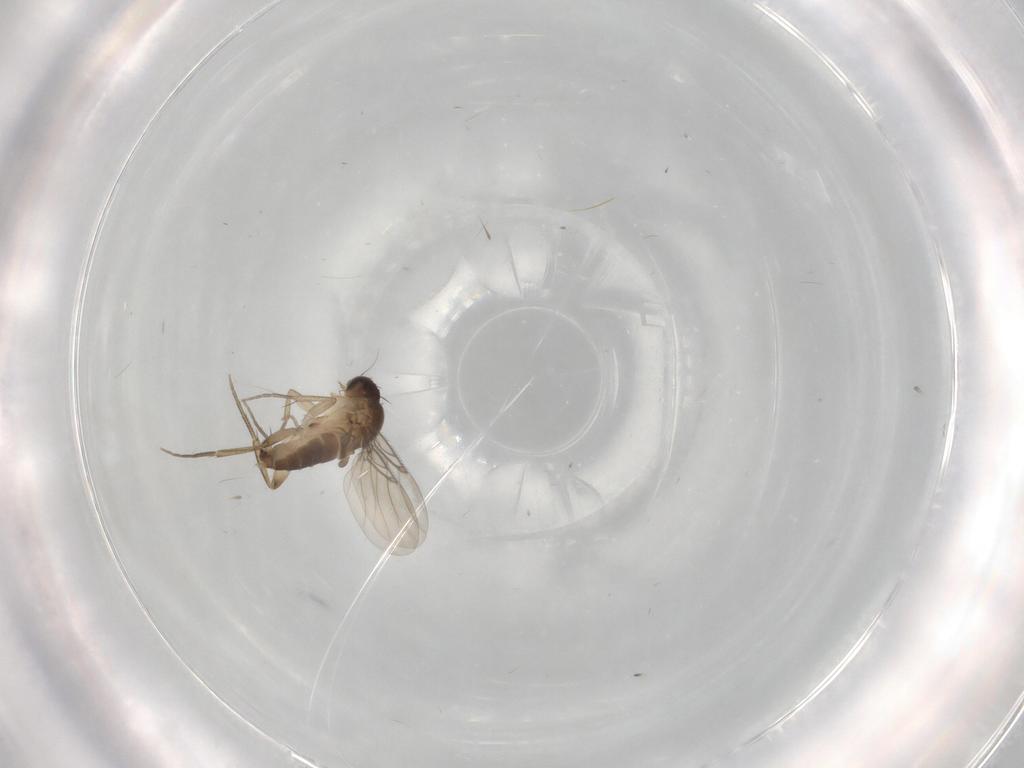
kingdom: Animalia
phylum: Arthropoda
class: Insecta
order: Diptera
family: Phoridae
